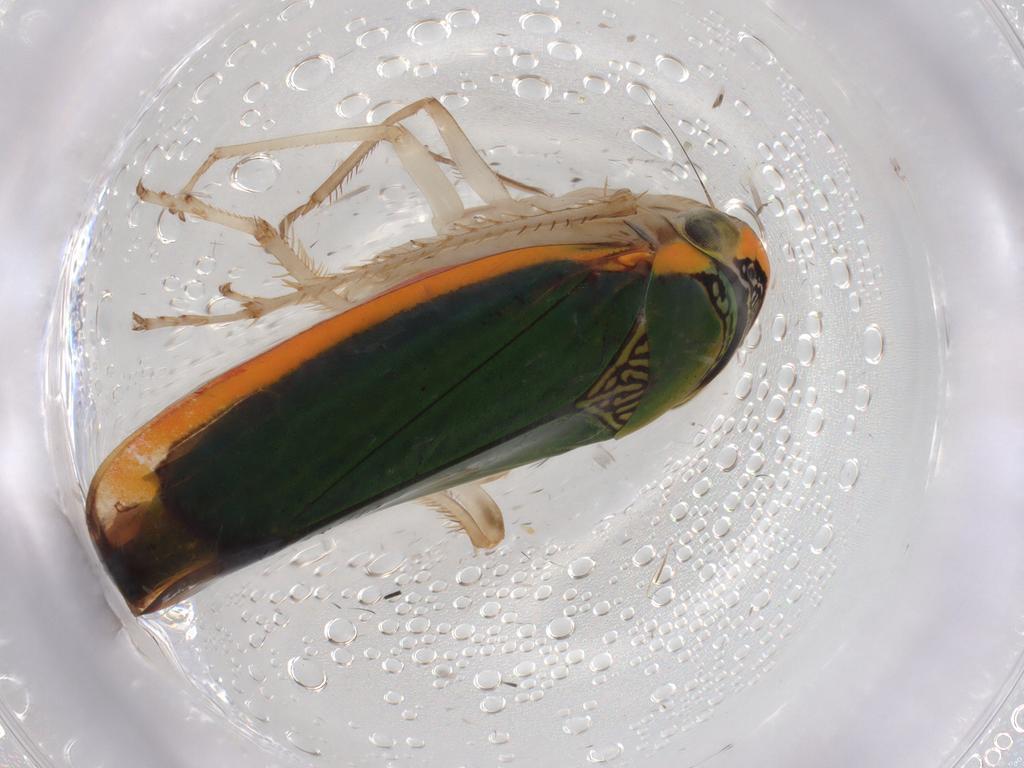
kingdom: Animalia
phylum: Arthropoda
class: Insecta
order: Hemiptera
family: Cicadellidae
